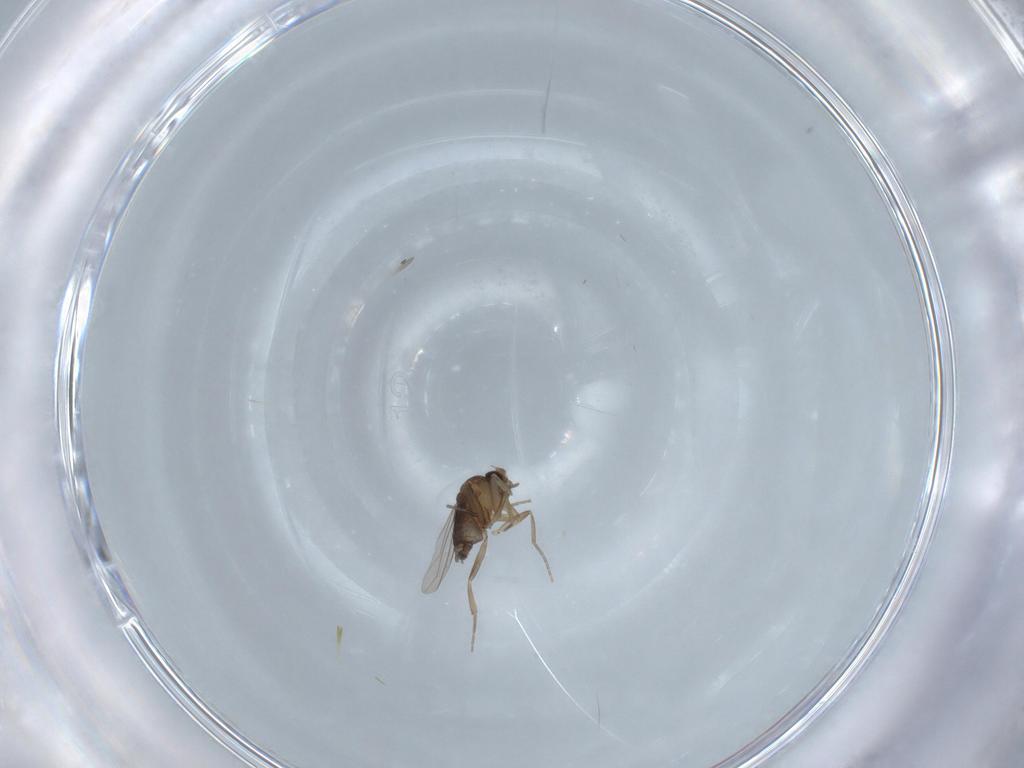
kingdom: Animalia
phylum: Arthropoda
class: Insecta
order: Diptera
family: Phoridae
